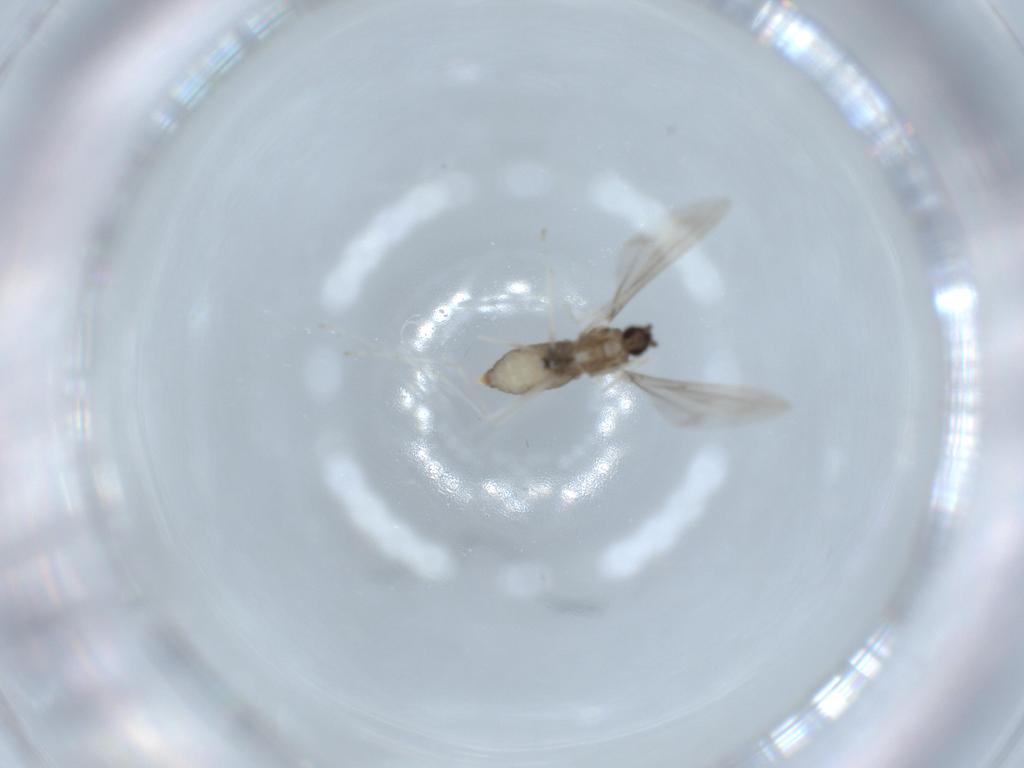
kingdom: Animalia
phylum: Arthropoda
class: Insecta
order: Diptera
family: Cecidomyiidae
